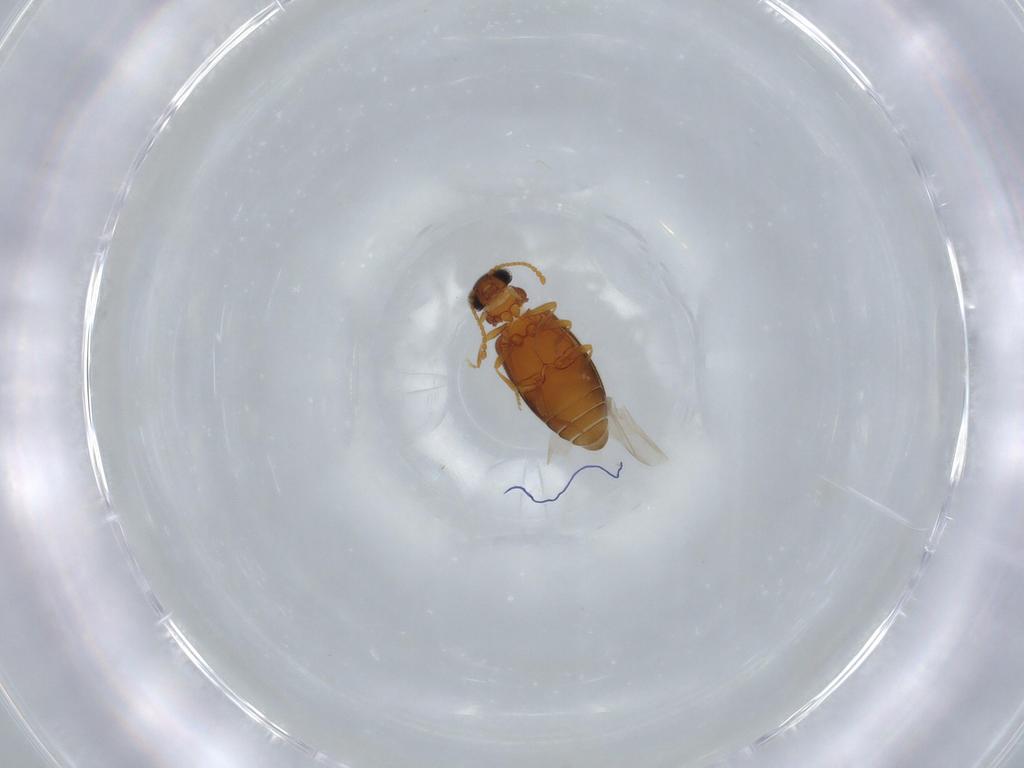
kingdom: Animalia
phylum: Arthropoda
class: Insecta
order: Coleoptera
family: Aderidae
